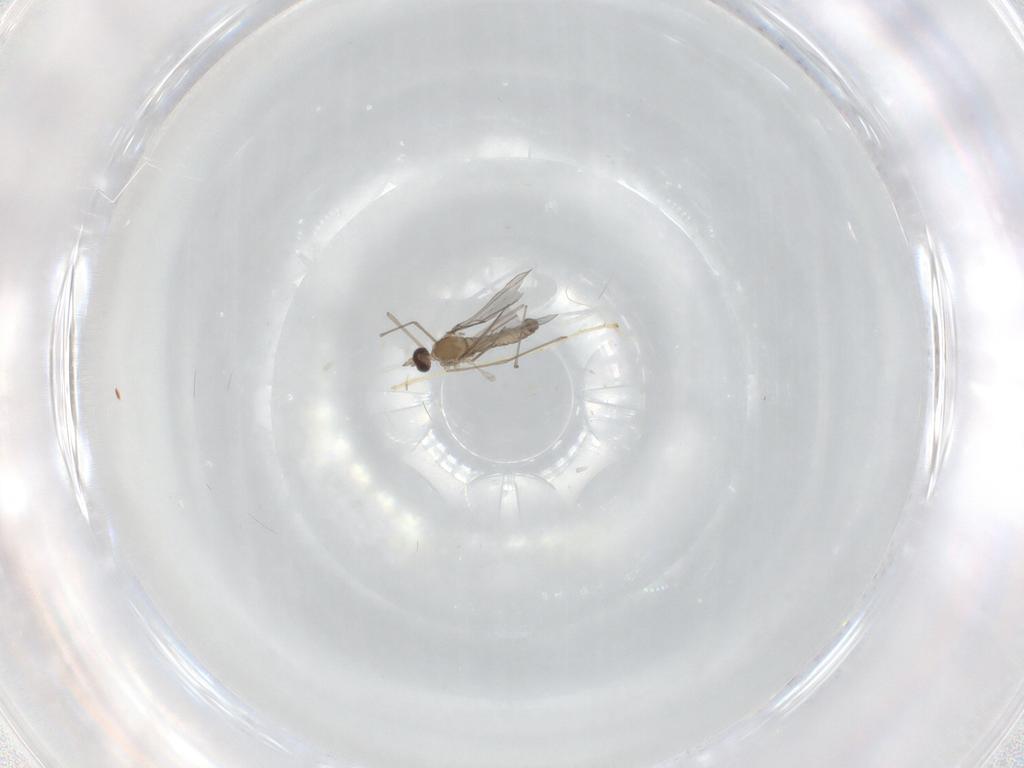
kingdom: Animalia
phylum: Arthropoda
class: Insecta
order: Diptera
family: Cecidomyiidae
